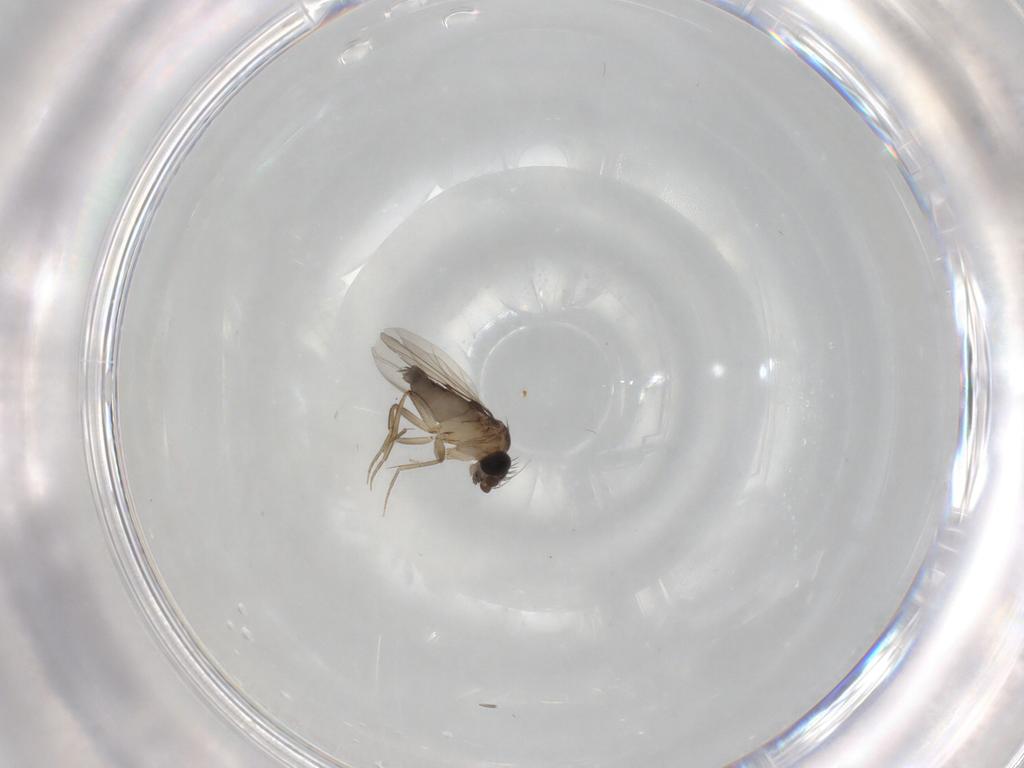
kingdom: Animalia
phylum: Arthropoda
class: Insecta
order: Diptera
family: Phoridae
